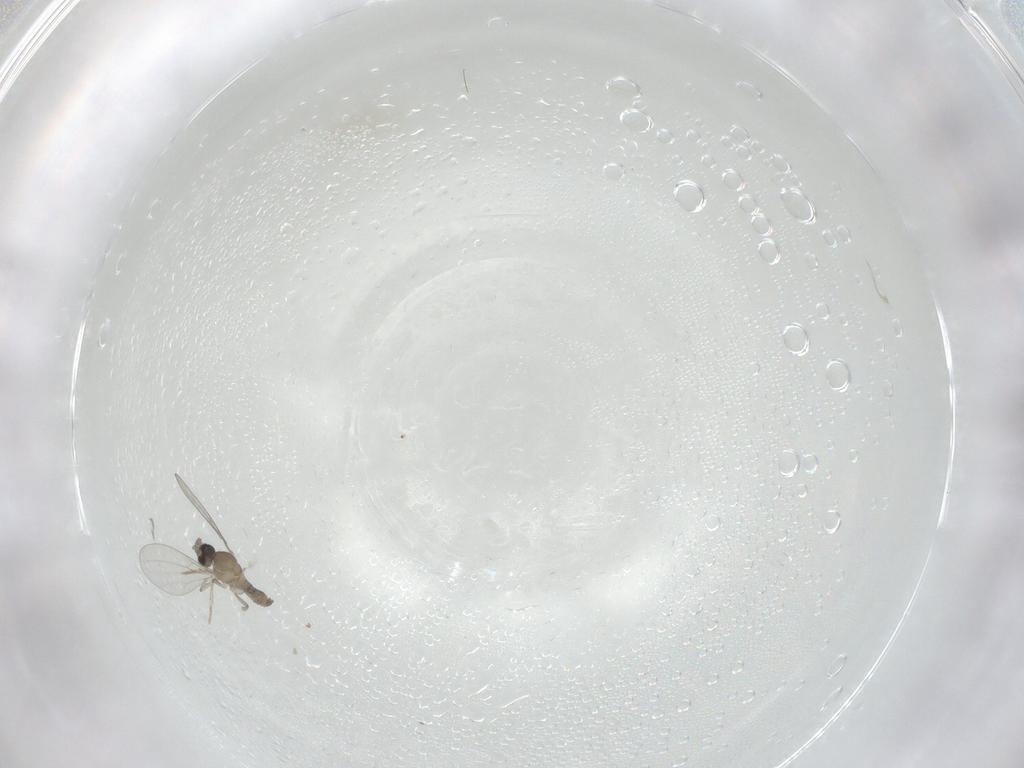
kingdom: Animalia
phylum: Arthropoda
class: Insecta
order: Diptera
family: Cecidomyiidae
